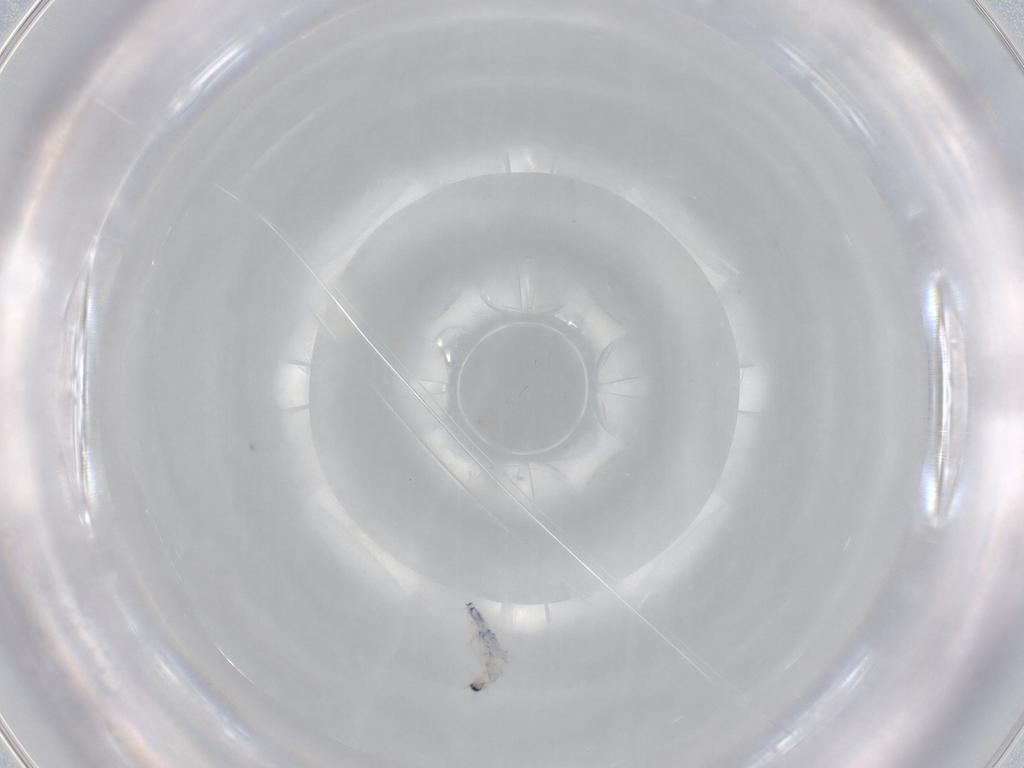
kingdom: Animalia
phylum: Arthropoda
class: Collembola
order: Entomobryomorpha
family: Entomobryidae
